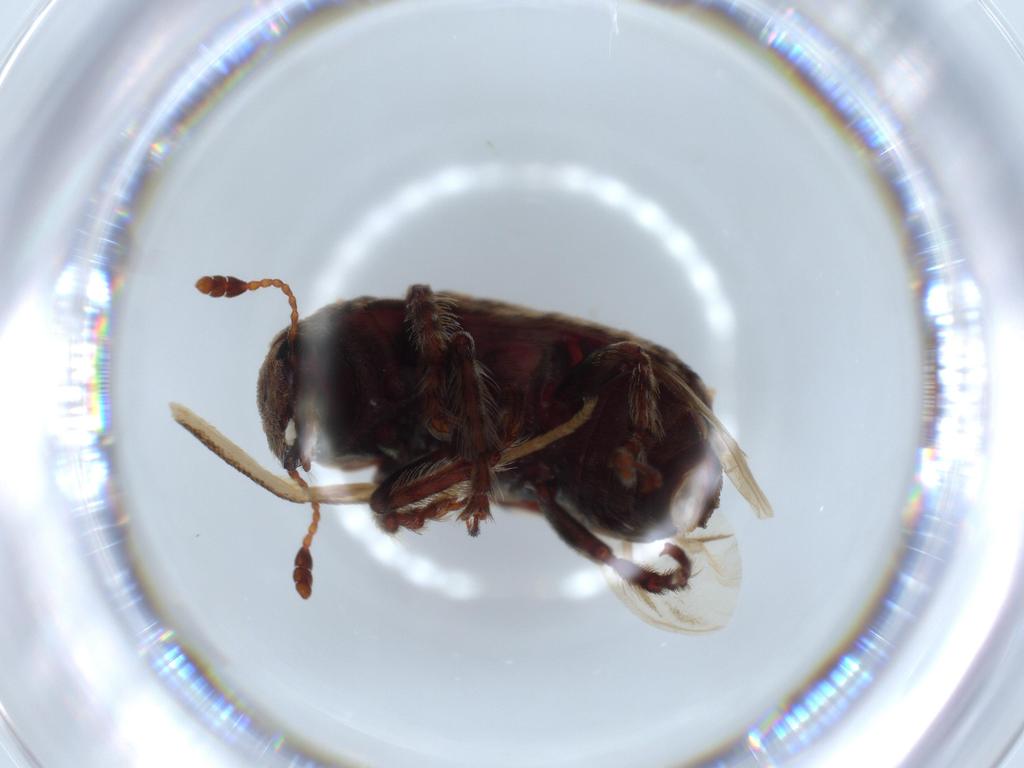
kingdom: Animalia
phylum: Arthropoda
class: Insecta
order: Coleoptera
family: Anthribidae
